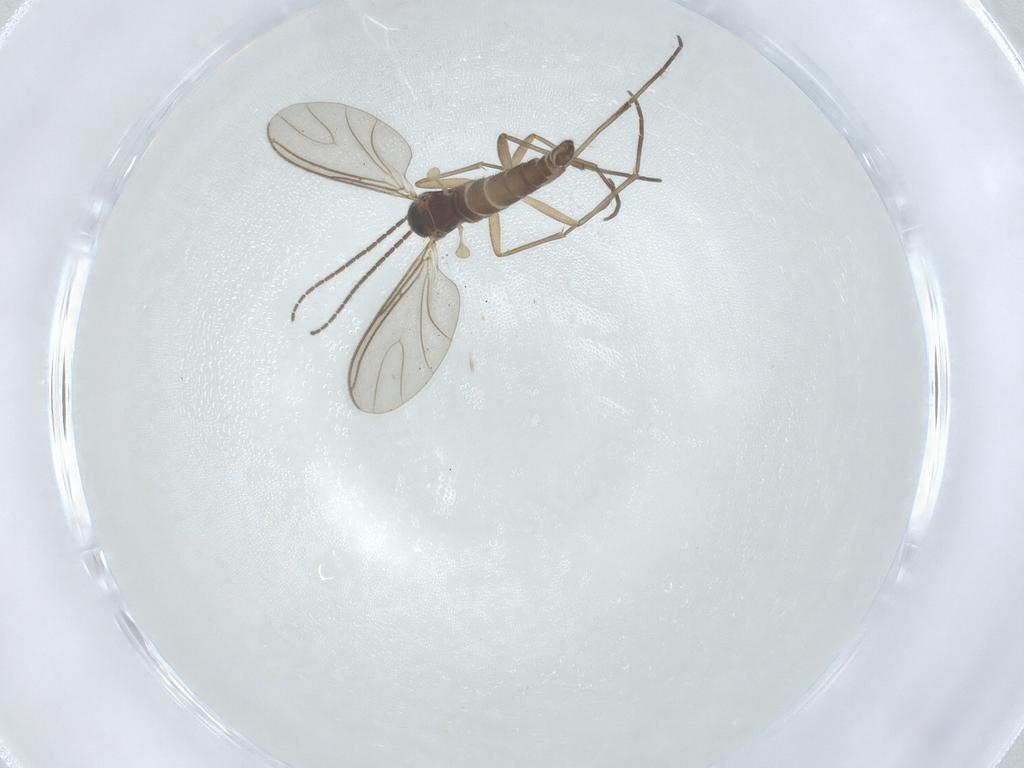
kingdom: Animalia
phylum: Arthropoda
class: Insecta
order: Diptera
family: Sciaridae
